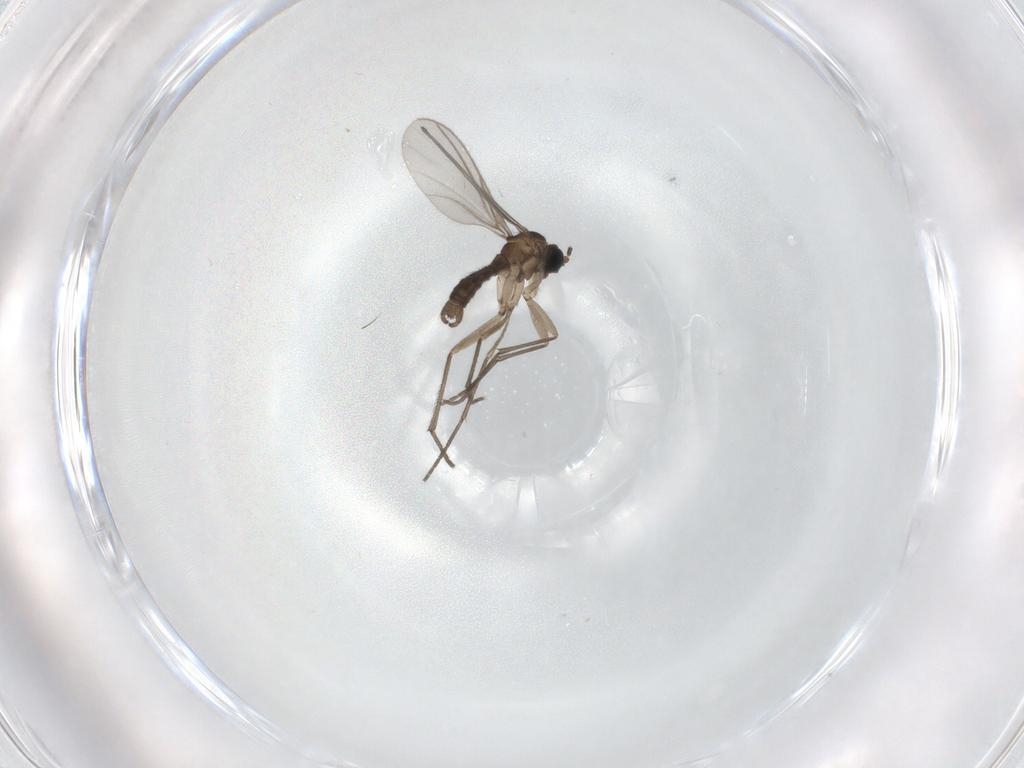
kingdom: Animalia
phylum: Arthropoda
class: Insecta
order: Diptera
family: Sciaridae
